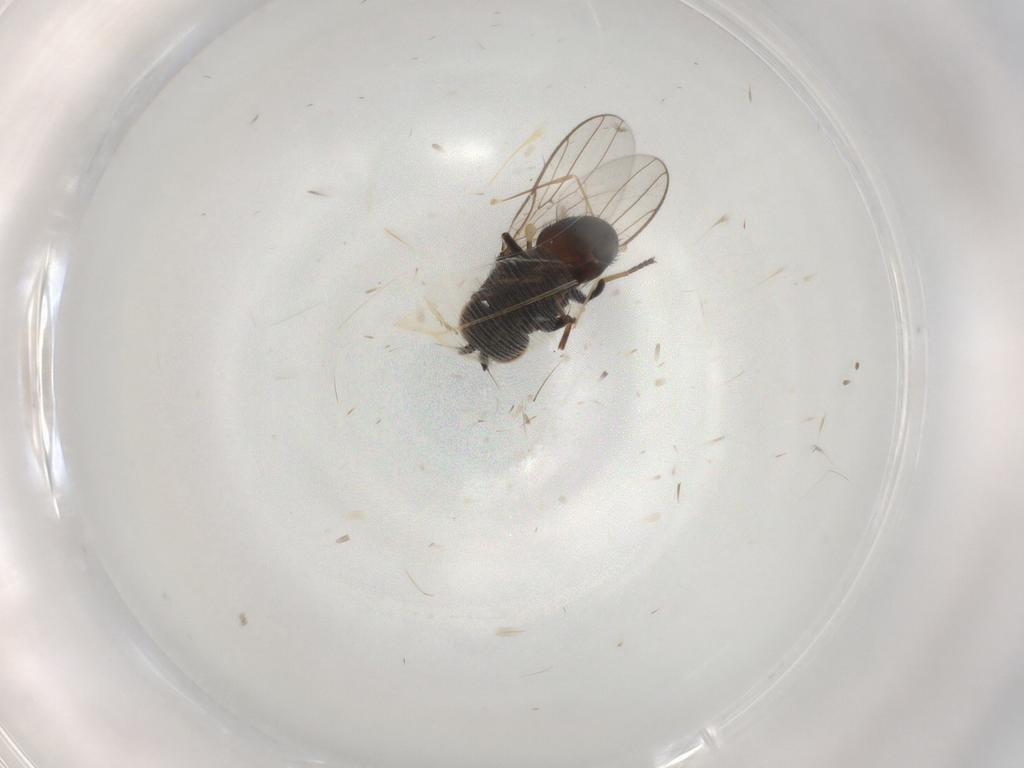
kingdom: Animalia
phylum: Arthropoda
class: Insecta
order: Diptera
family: Chloropidae
